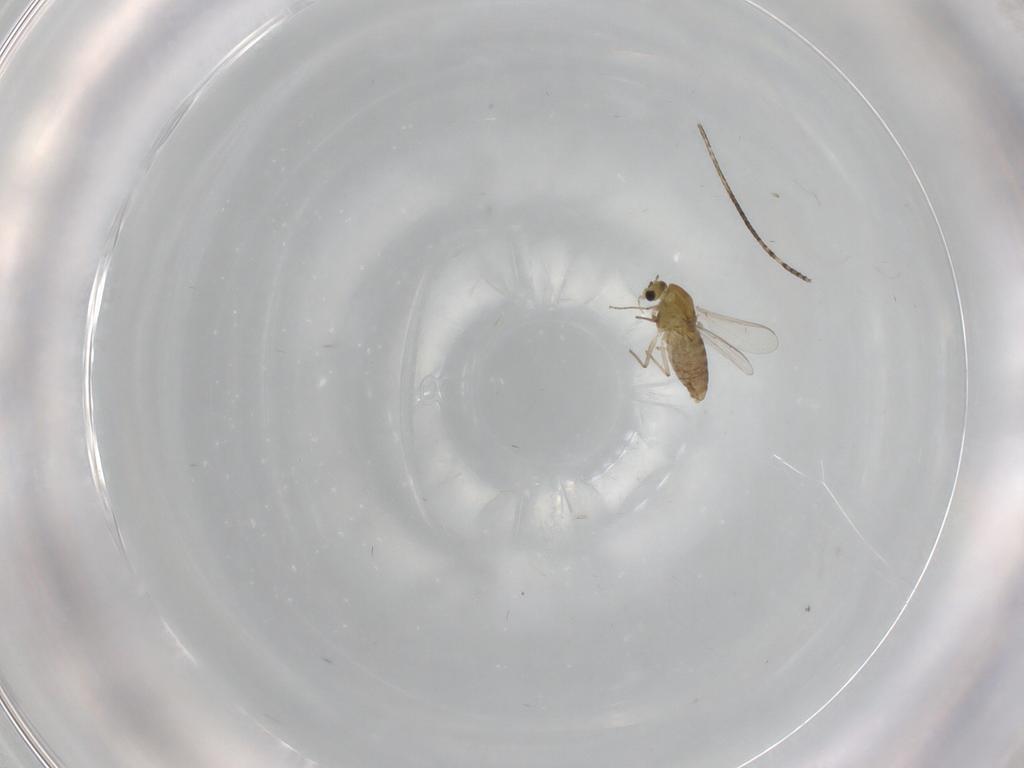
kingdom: Animalia
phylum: Arthropoda
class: Insecta
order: Diptera
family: Chironomidae
